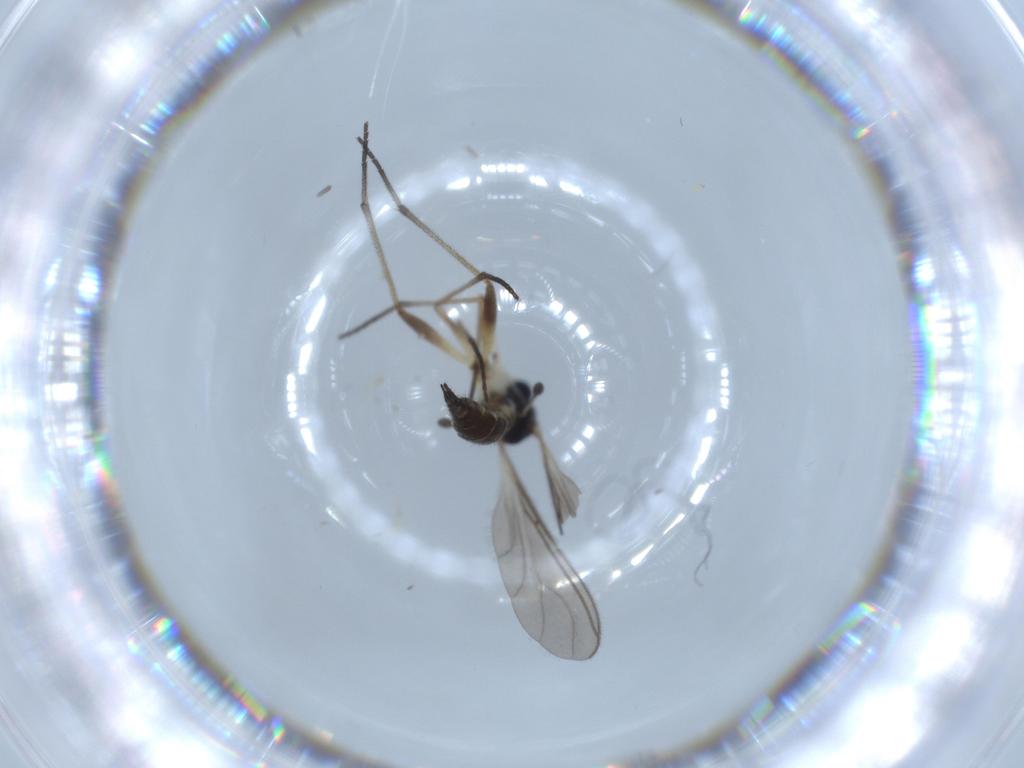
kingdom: Animalia
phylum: Arthropoda
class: Insecta
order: Diptera
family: Sciaridae
